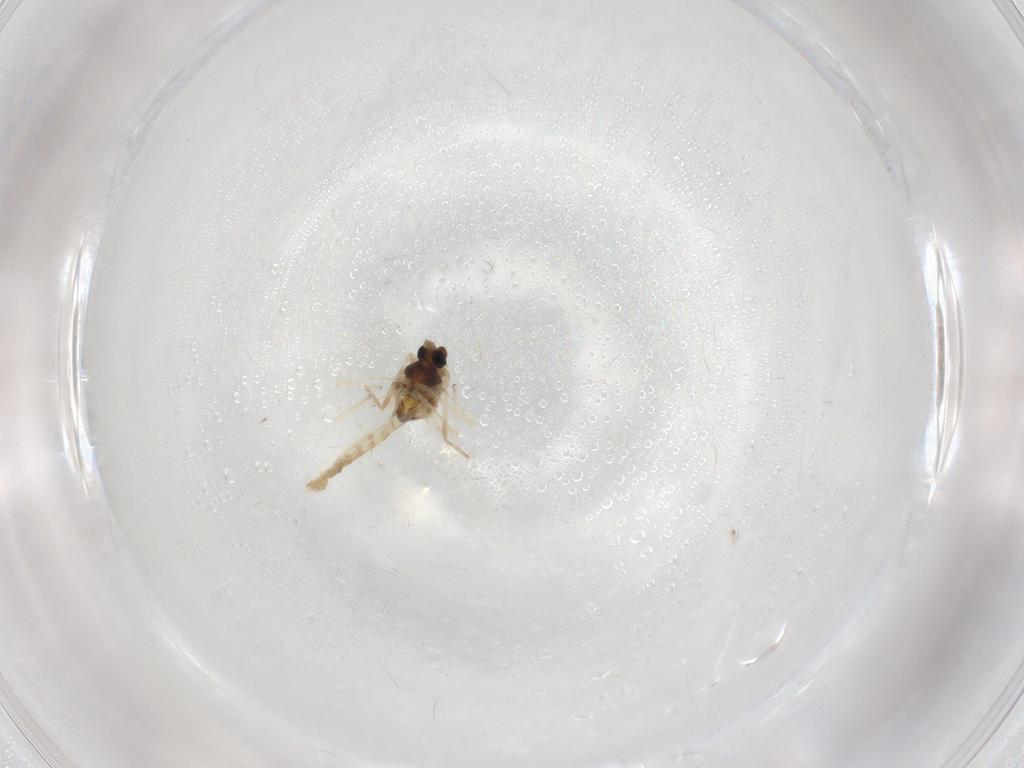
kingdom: Animalia
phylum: Arthropoda
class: Insecta
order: Diptera
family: Chironomidae
